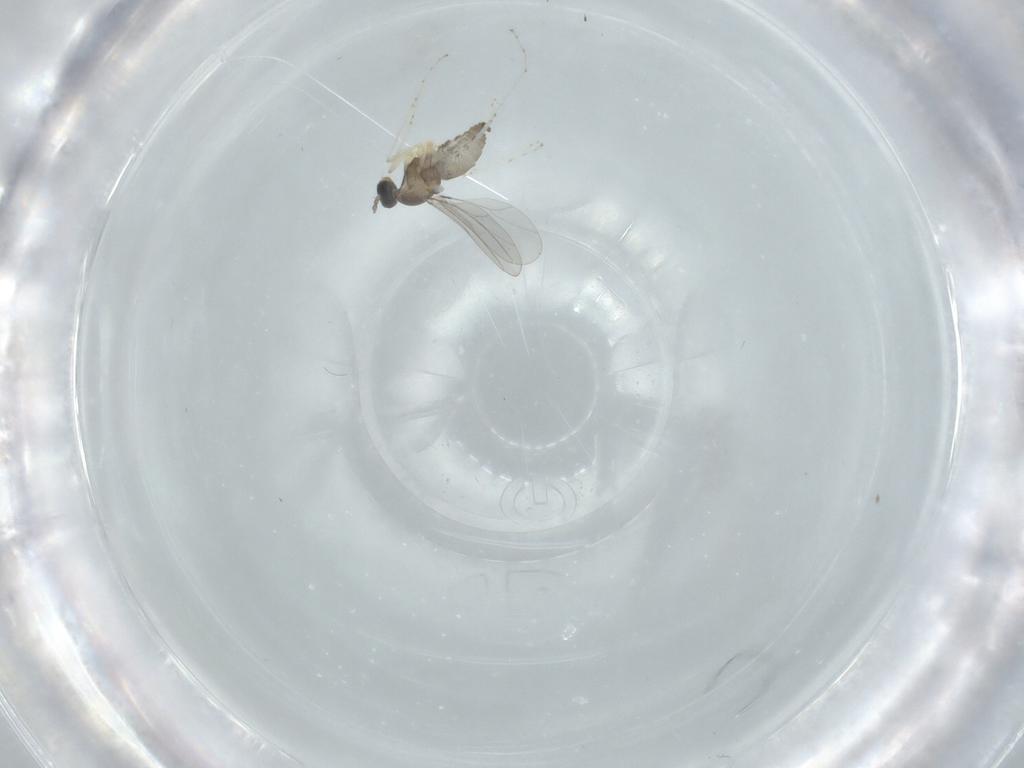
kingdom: Animalia
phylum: Arthropoda
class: Insecta
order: Diptera
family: Cecidomyiidae
